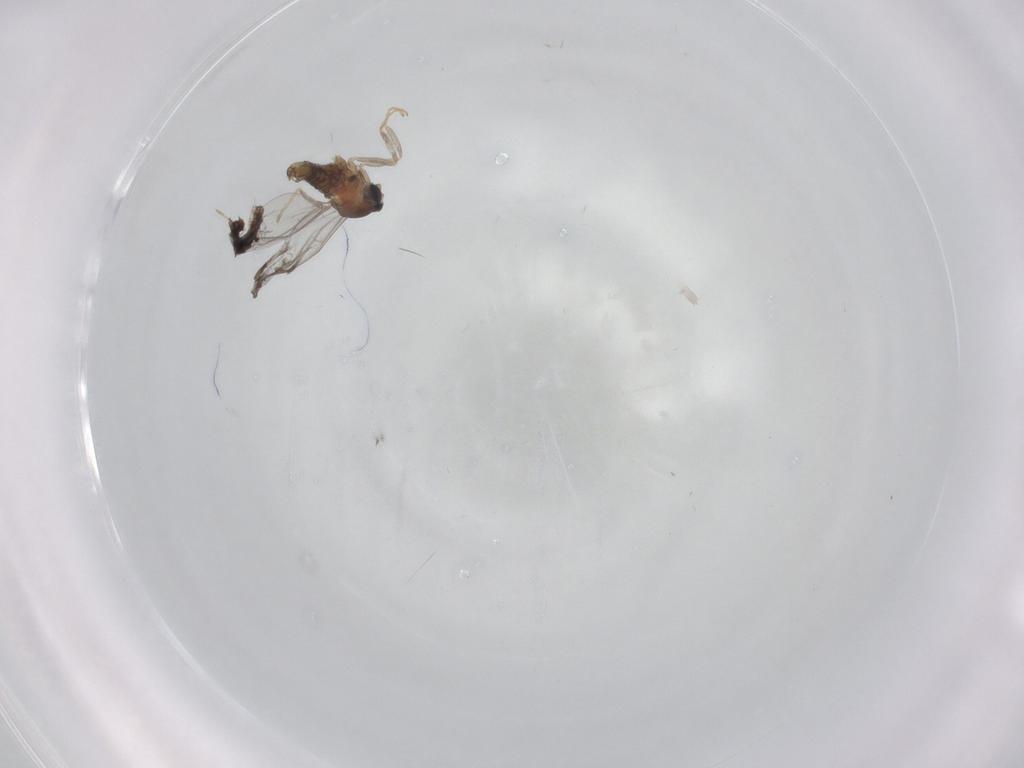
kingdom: Animalia
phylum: Arthropoda
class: Insecta
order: Diptera
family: Cecidomyiidae
